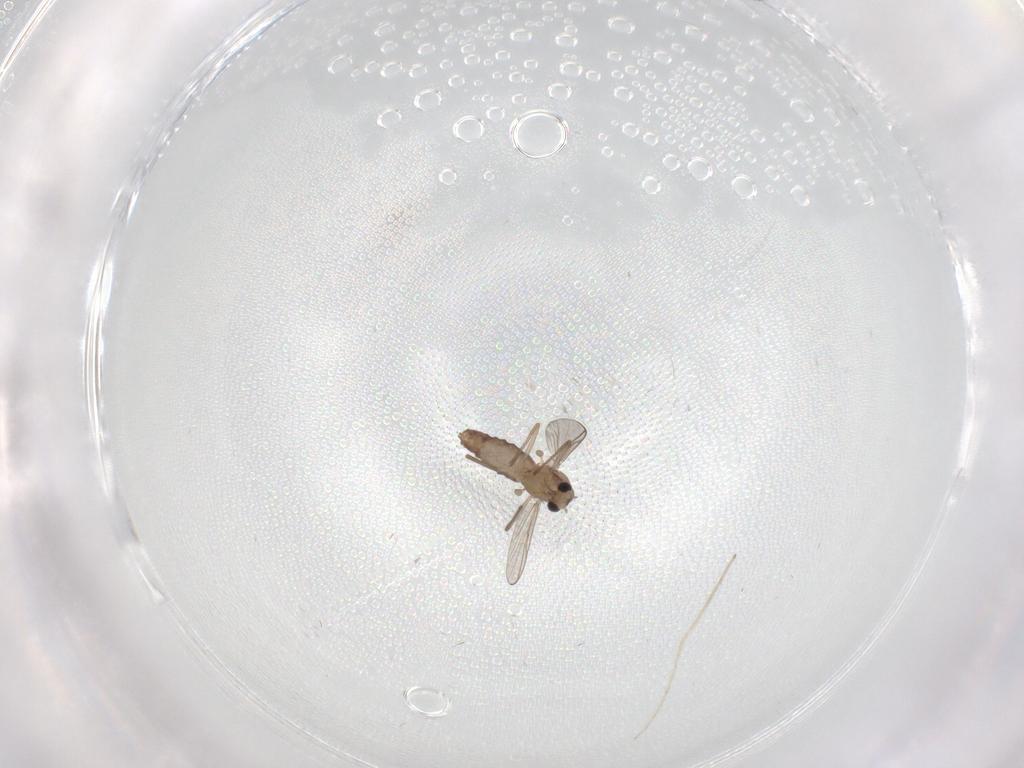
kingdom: Animalia
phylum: Arthropoda
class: Insecta
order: Diptera
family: Chironomidae
